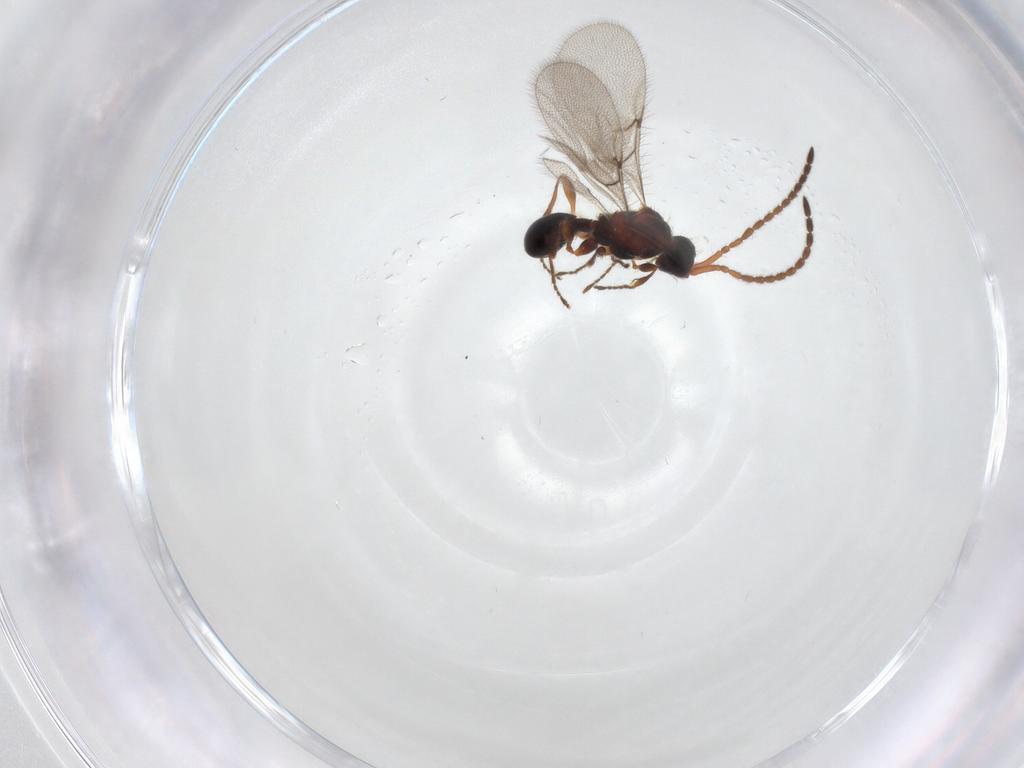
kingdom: Animalia
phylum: Arthropoda
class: Insecta
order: Hymenoptera
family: Diapriidae
